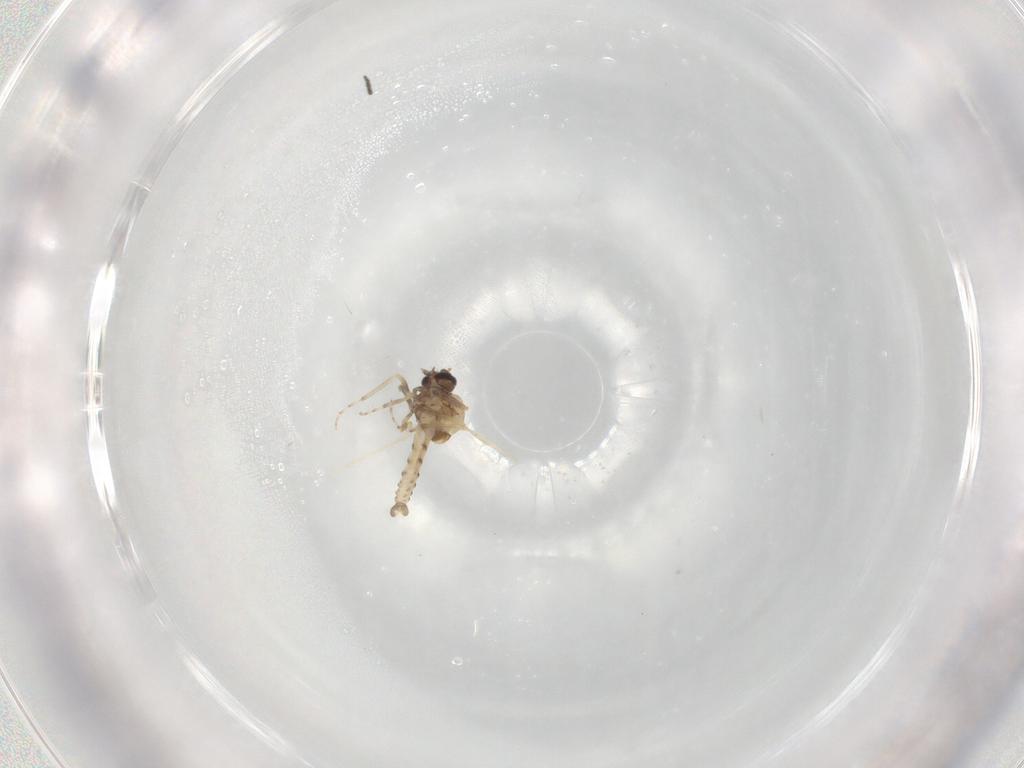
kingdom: Animalia
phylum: Arthropoda
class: Insecta
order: Diptera
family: Ceratopogonidae
